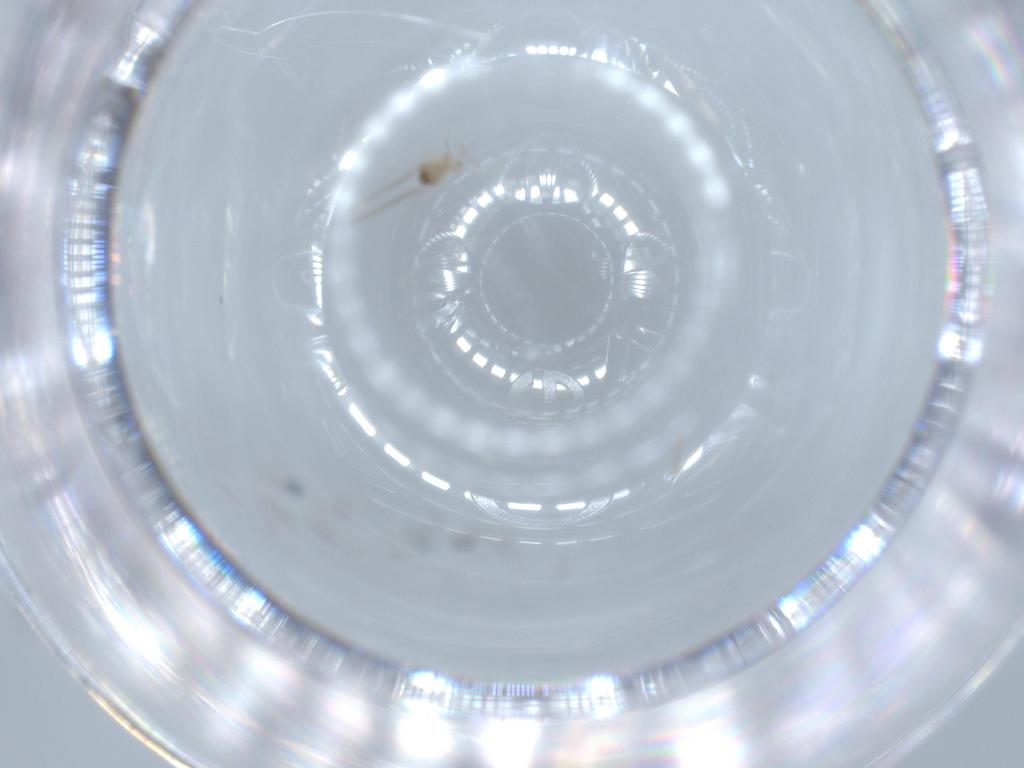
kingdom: Animalia
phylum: Arthropoda
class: Insecta
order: Diptera
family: Cecidomyiidae
